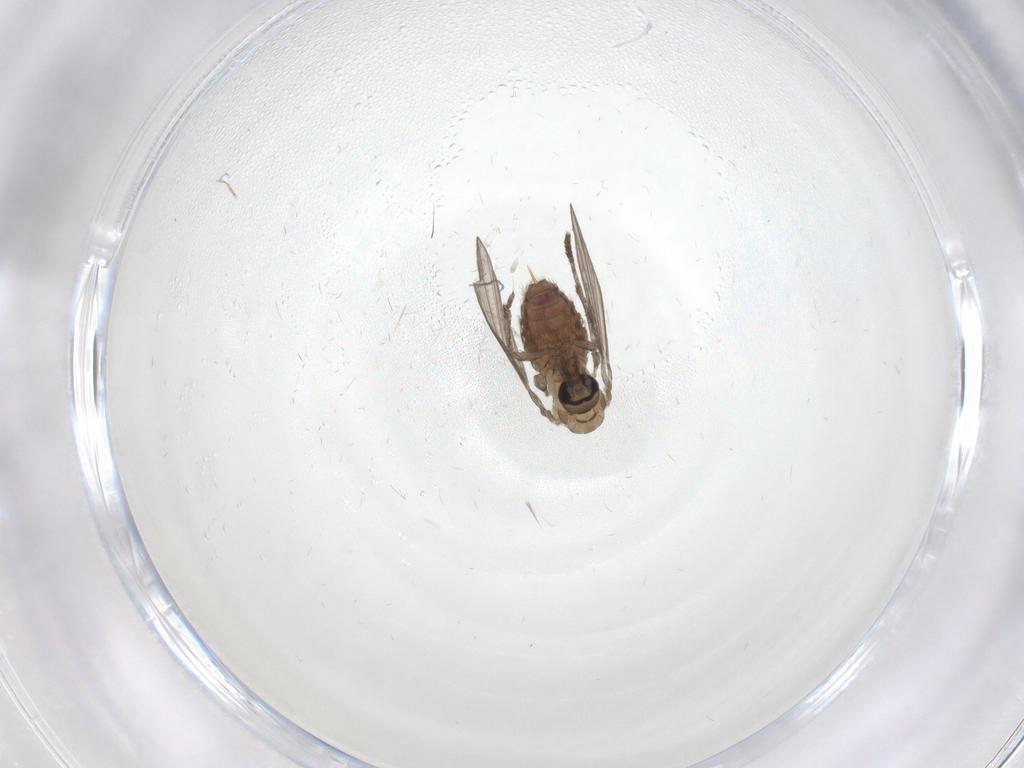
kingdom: Animalia
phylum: Arthropoda
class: Insecta
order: Diptera
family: Psychodidae
